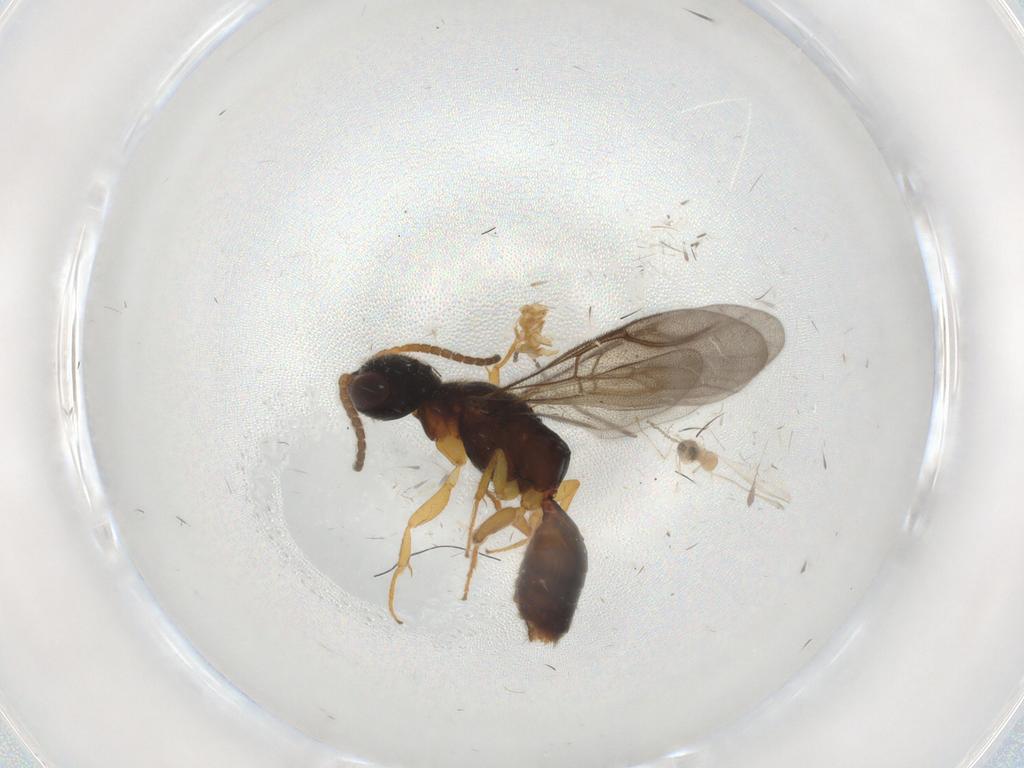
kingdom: Animalia
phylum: Arthropoda
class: Insecta
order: Hymenoptera
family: Bethylidae
